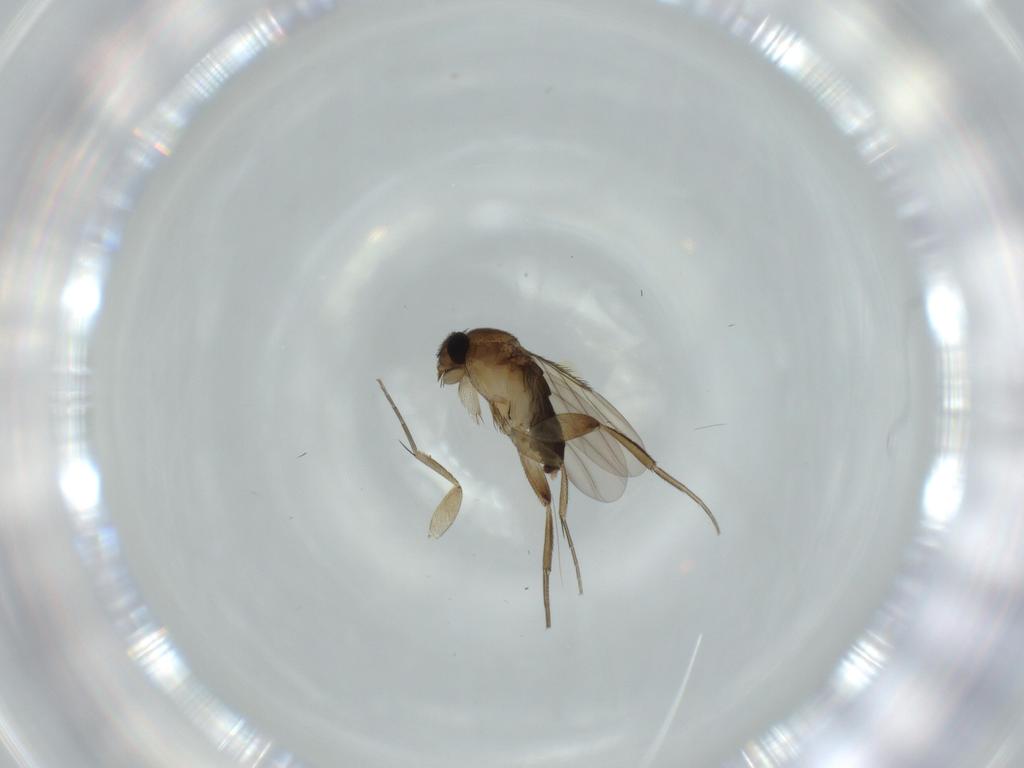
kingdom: Animalia
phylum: Arthropoda
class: Insecta
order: Diptera
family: Phoridae
